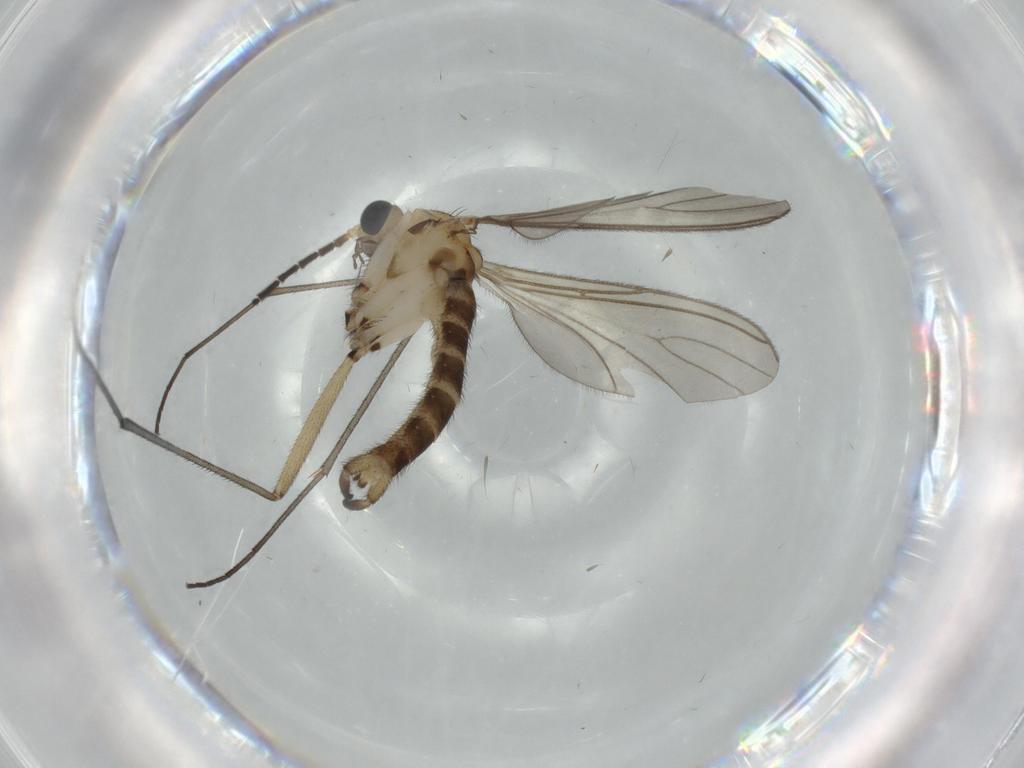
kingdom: Animalia
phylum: Arthropoda
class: Insecta
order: Diptera
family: Sciaridae
